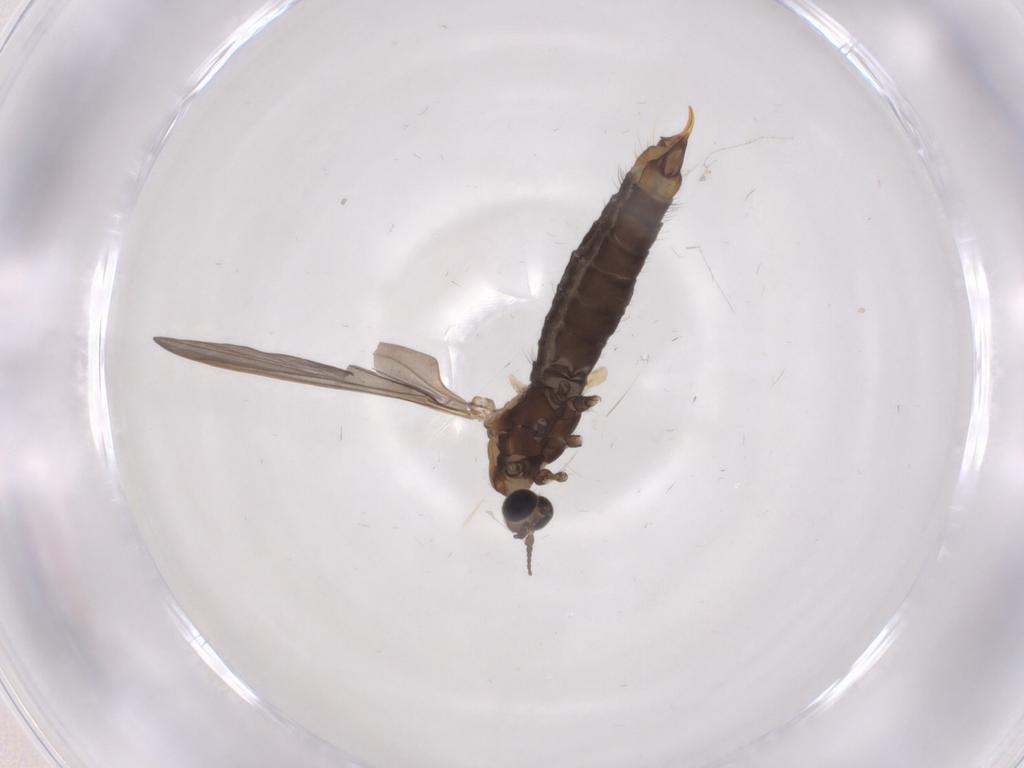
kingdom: Animalia
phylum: Arthropoda
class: Insecta
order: Diptera
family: Limoniidae
